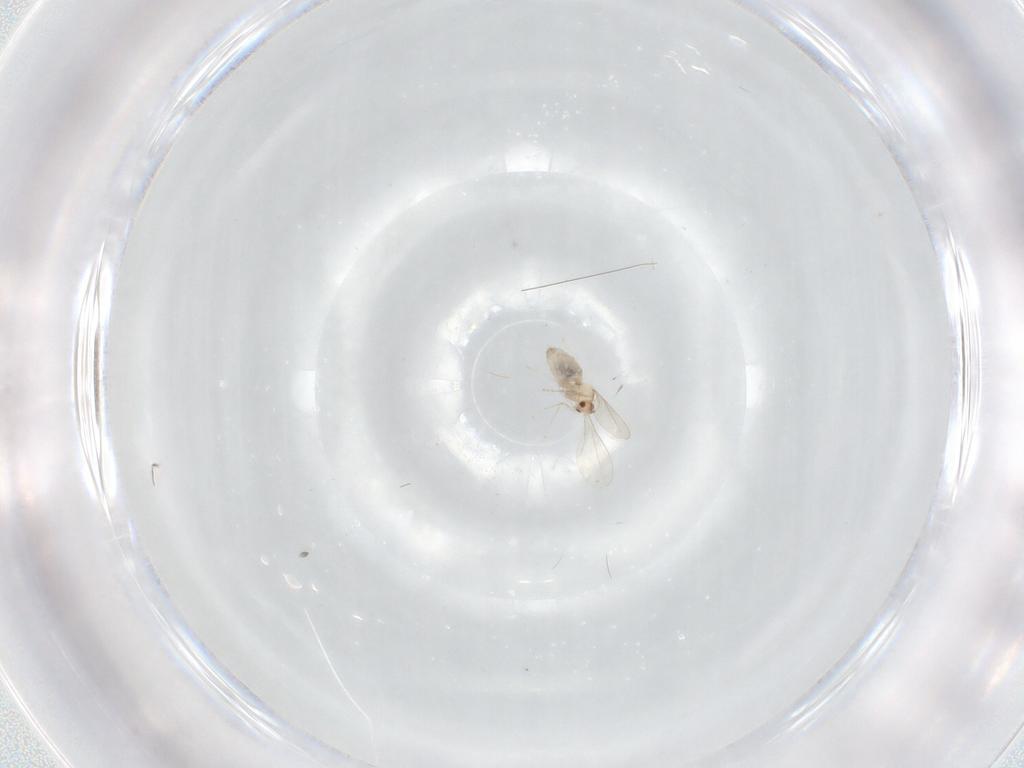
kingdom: Animalia
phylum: Arthropoda
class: Insecta
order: Diptera
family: Cecidomyiidae
